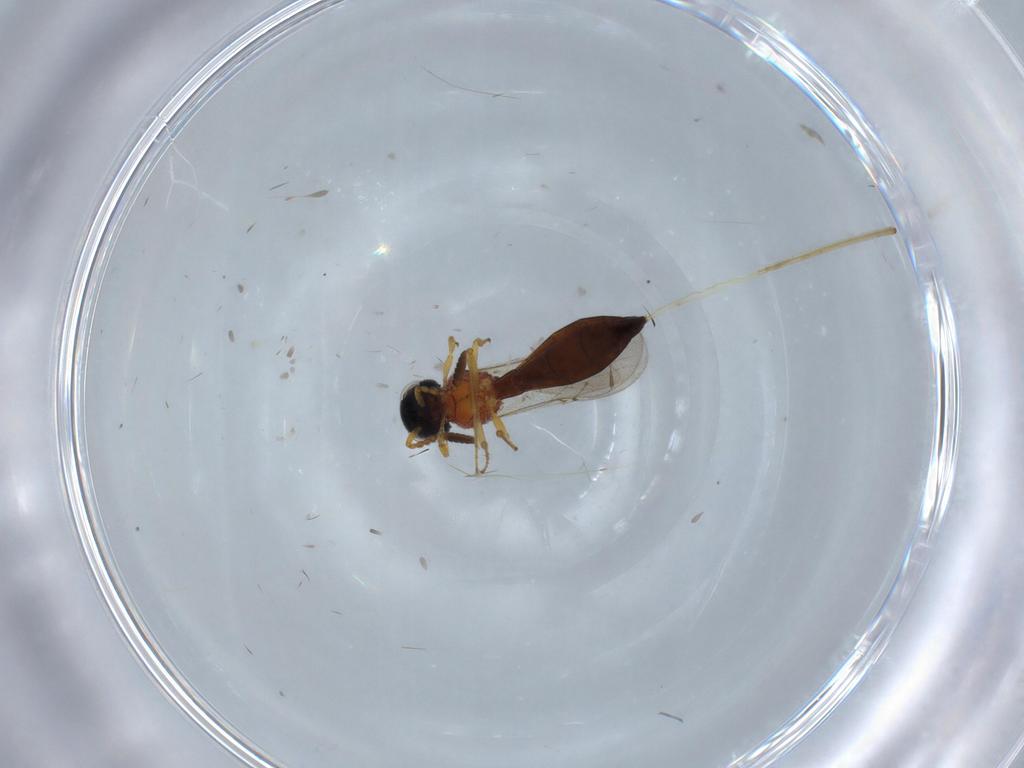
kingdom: Animalia
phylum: Arthropoda
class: Insecta
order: Hymenoptera
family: Scelionidae
